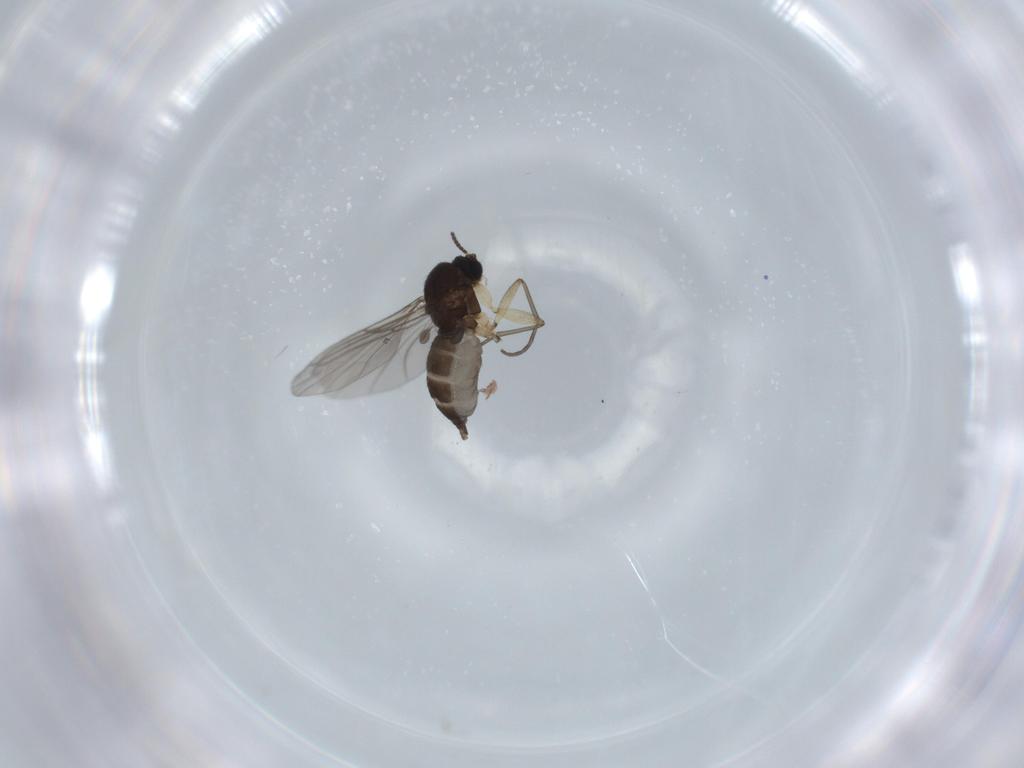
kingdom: Animalia
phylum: Arthropoda
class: Insecta
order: Diptera
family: Sciaridae
